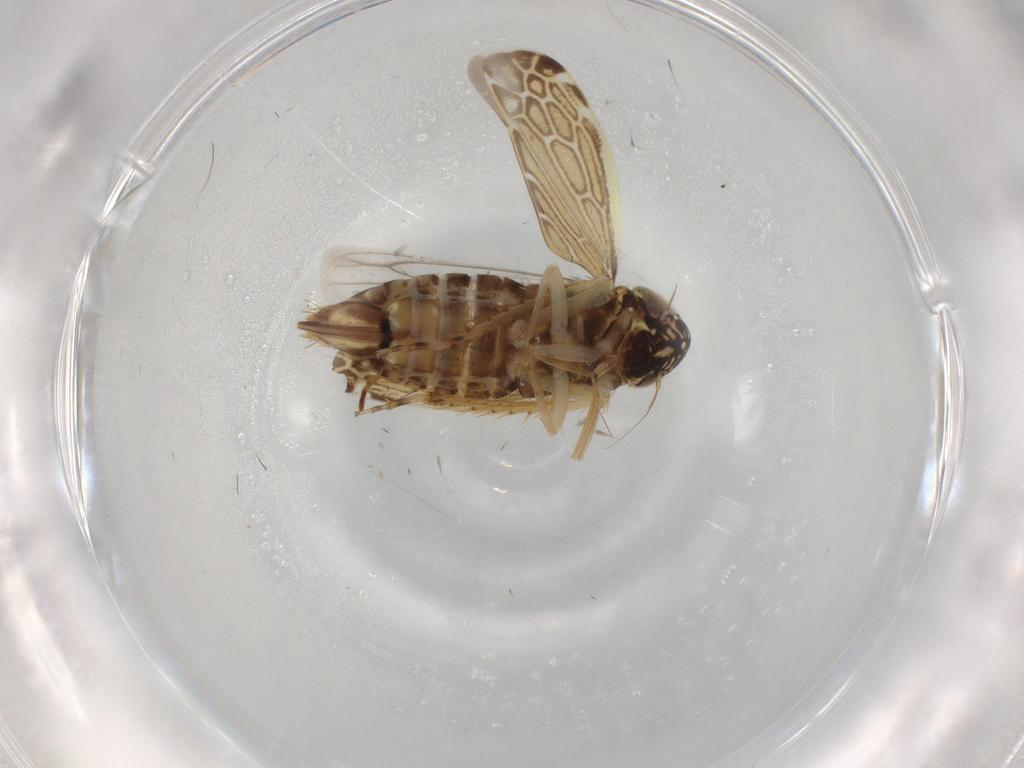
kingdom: Animalia
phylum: Arthropoda
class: Insecta
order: Hemiptera
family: Cicadellidae
